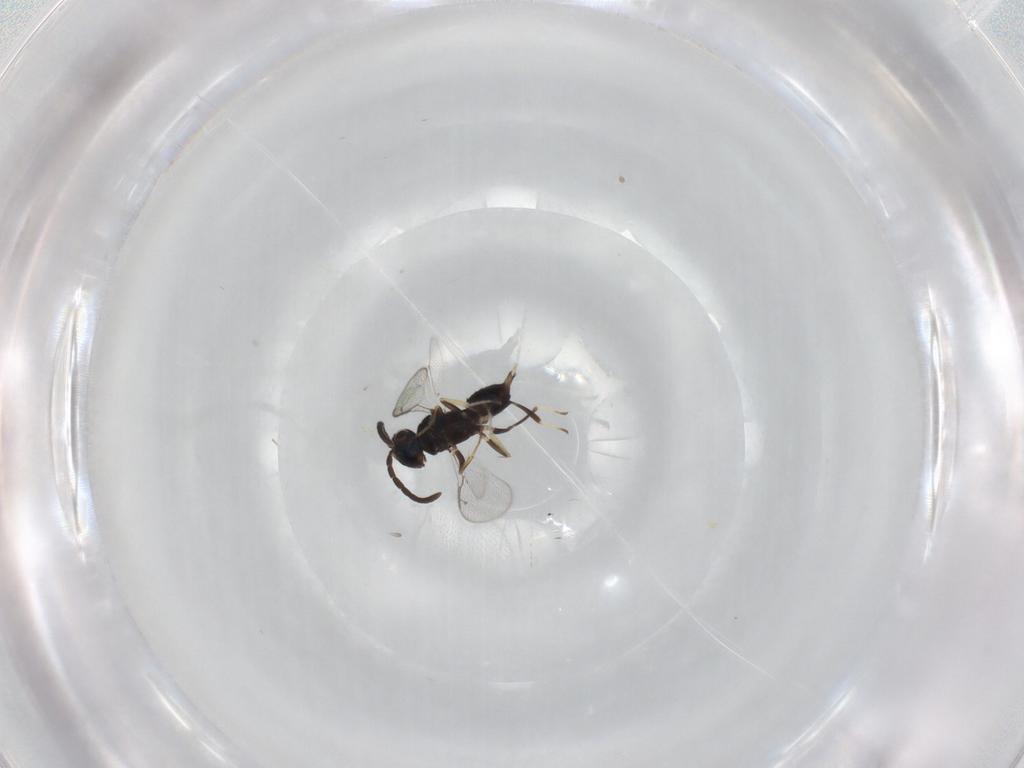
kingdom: Animalia
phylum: Arthropoda
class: Insecta
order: Hymenoptera
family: Eupelmidae
